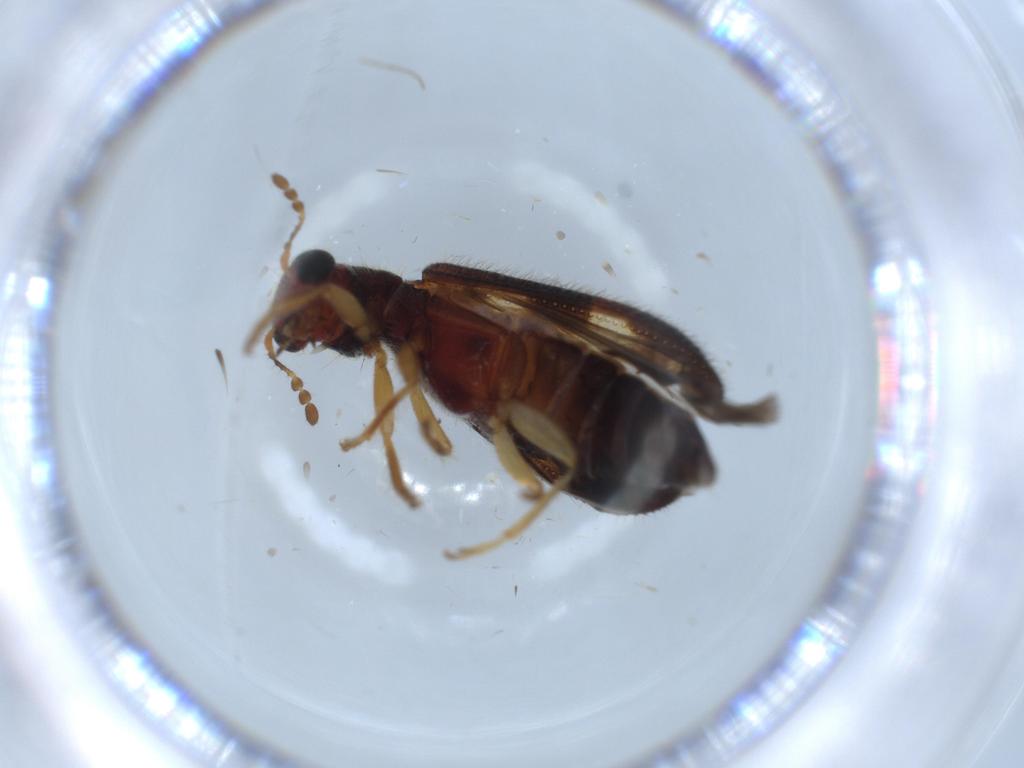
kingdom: Animalia
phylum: Arthropoda
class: Insecta
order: Coleoptera
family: Cleridae
